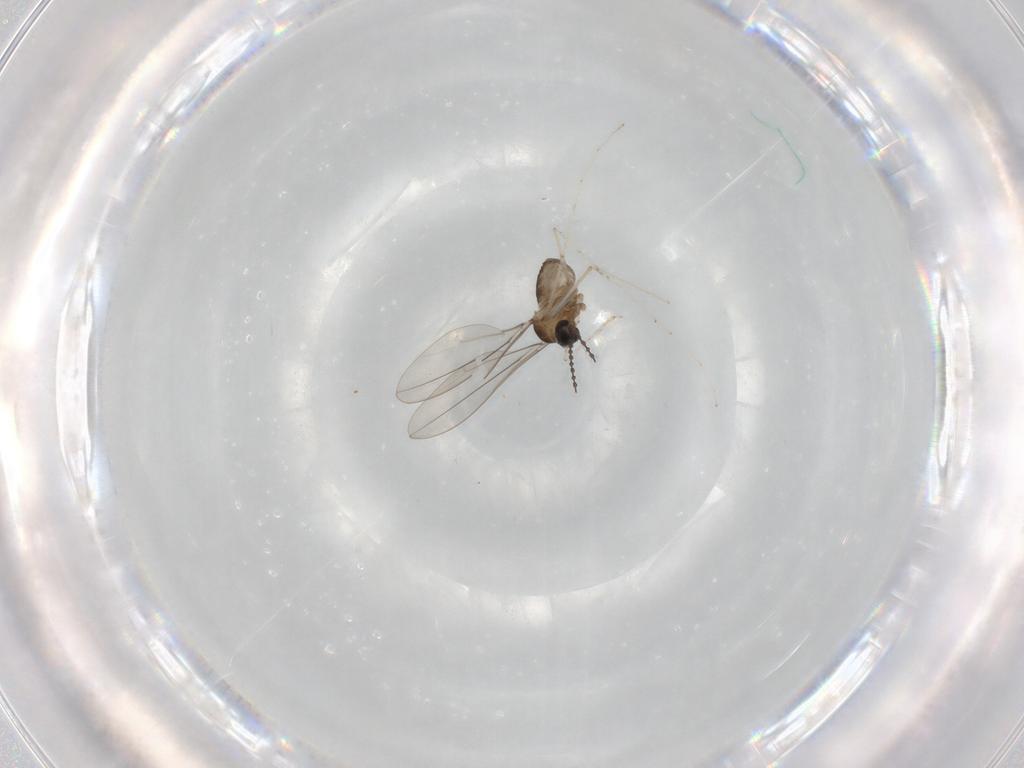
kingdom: Animalia
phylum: Arthropoda
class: Insecta
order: Diptera
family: Cecidomyiidae
